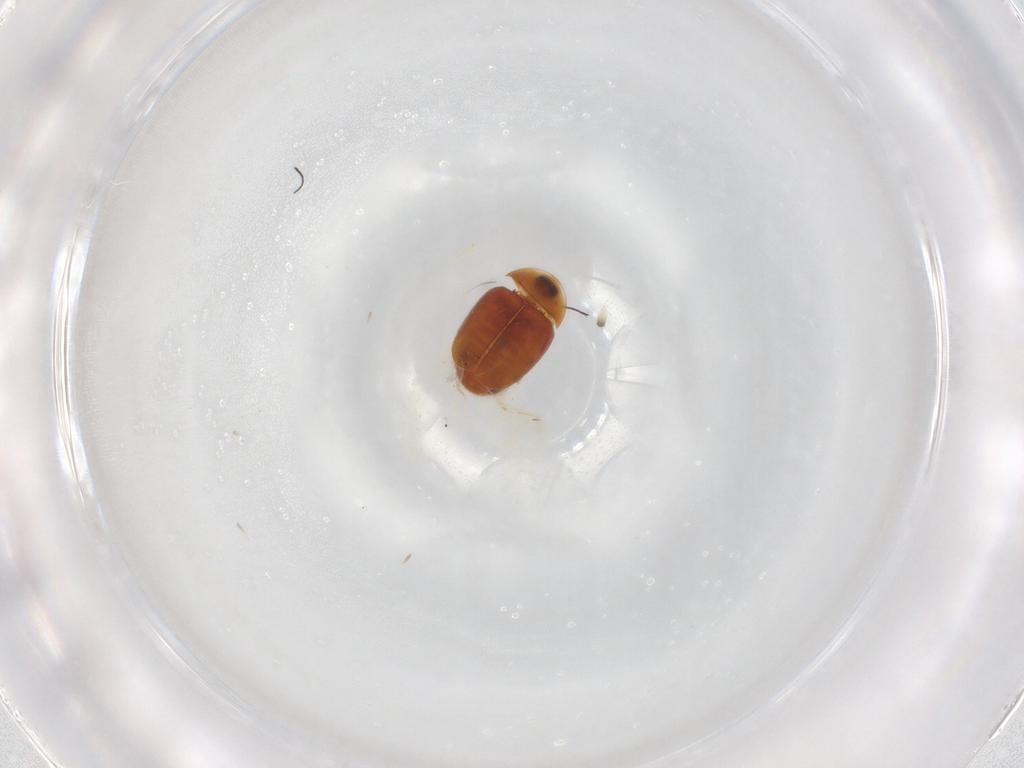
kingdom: Animalia
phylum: Arthropoda
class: Insecta
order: Coleoptera
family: Corylophidae
